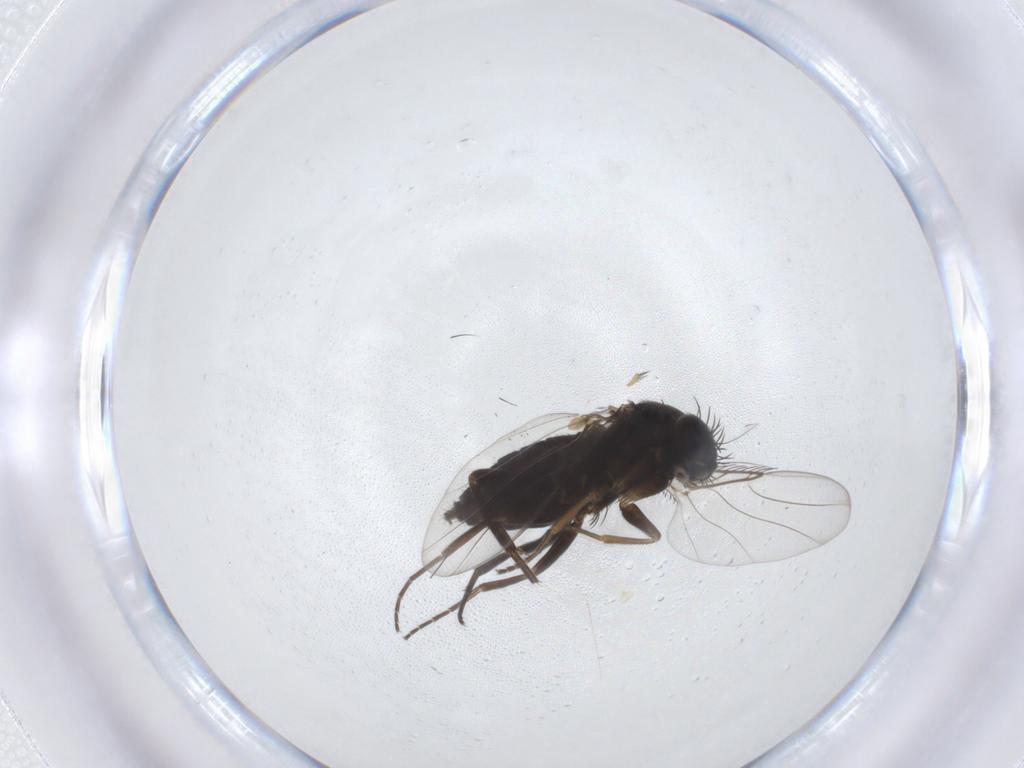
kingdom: Animalia
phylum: Arthropoda
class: Insecta
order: Diptera
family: Phoridae
